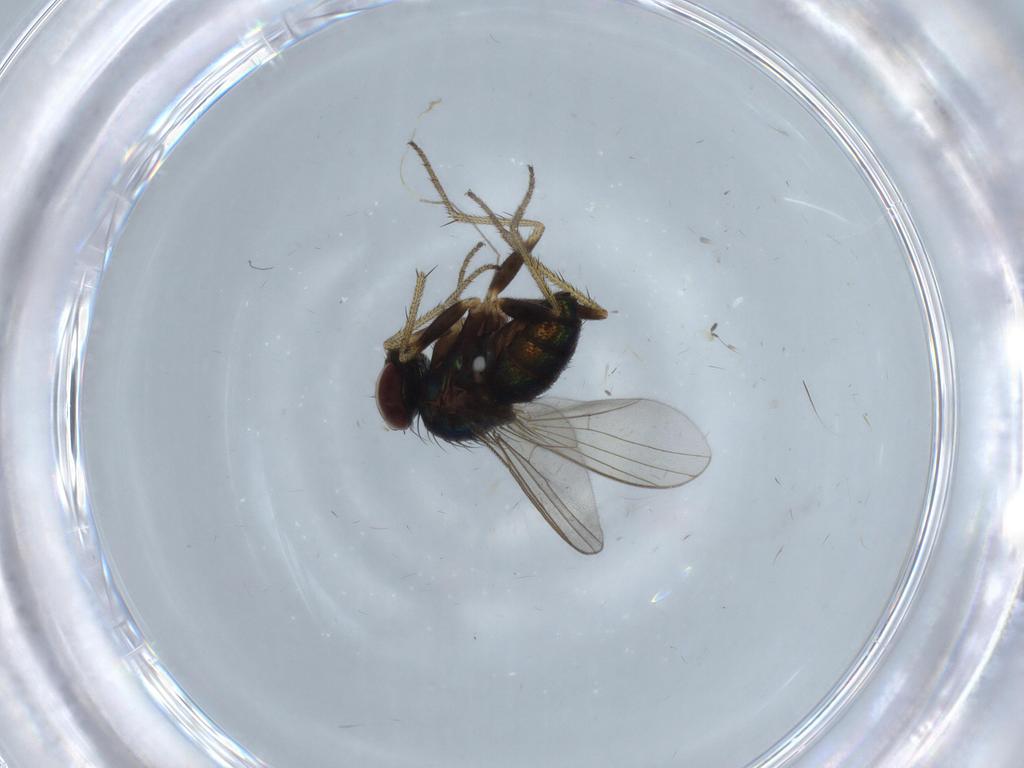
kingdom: Animalia
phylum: Arthropoda
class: Insecta
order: Diptera
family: Dolichopodidae
